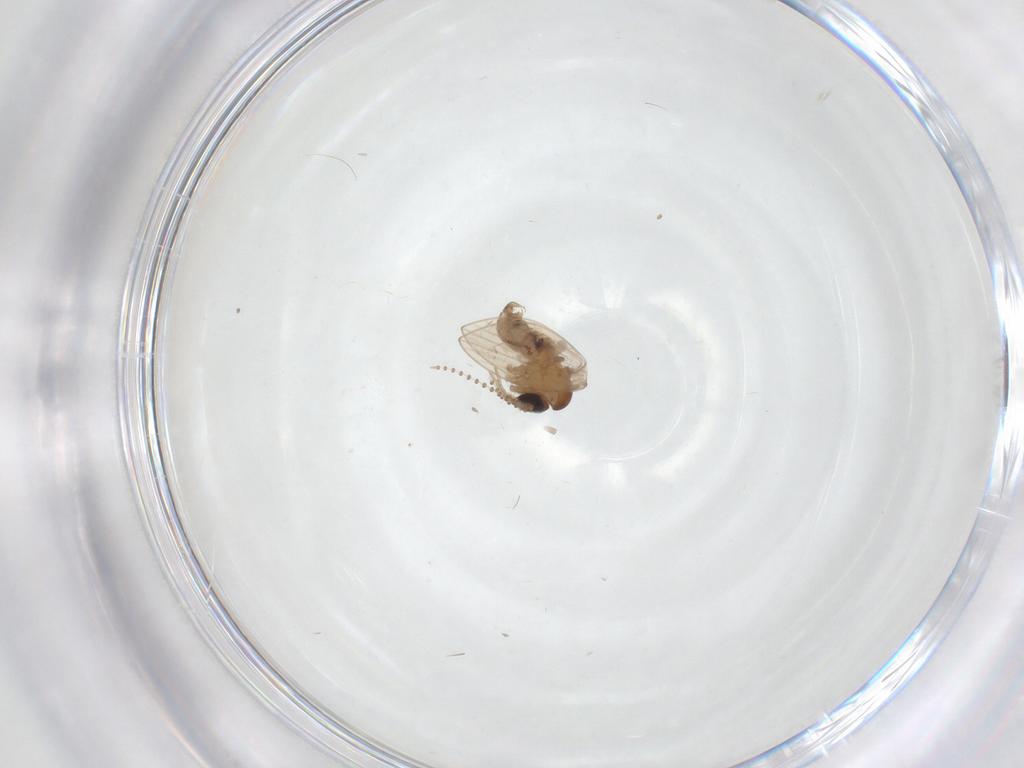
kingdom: Animalia
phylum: Arthropoda
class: Insecta
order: Diptera
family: Psychodidae
